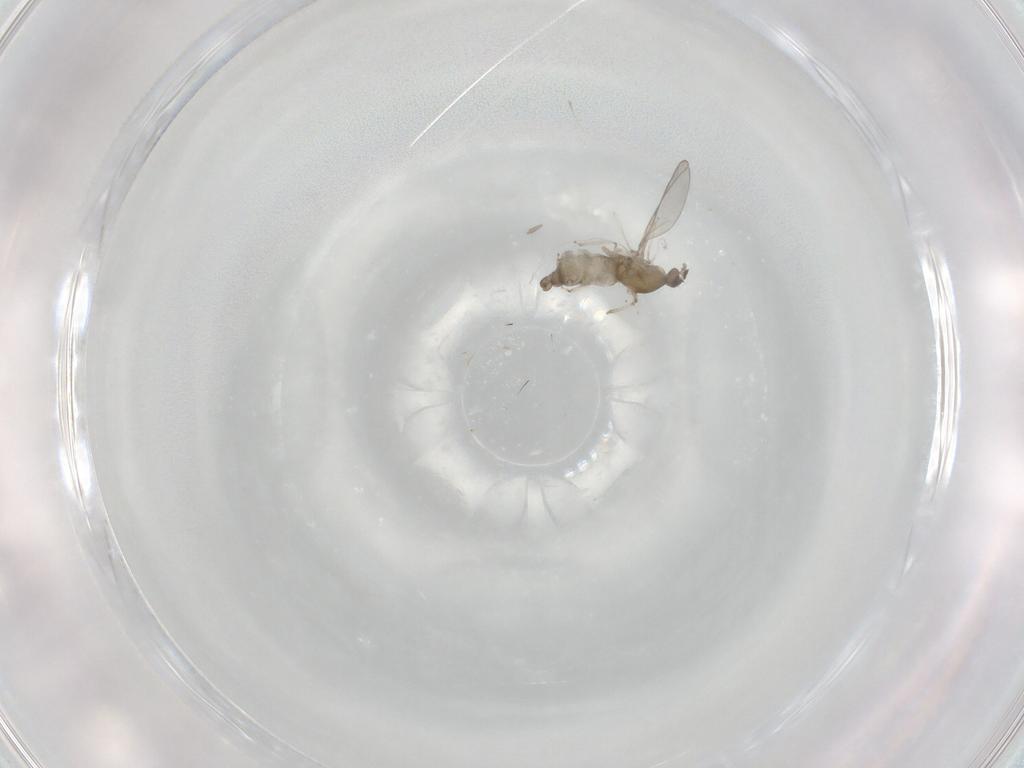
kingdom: Animalia
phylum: Arthropoda
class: Insecta
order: Diptera
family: Cecidomyiidae
